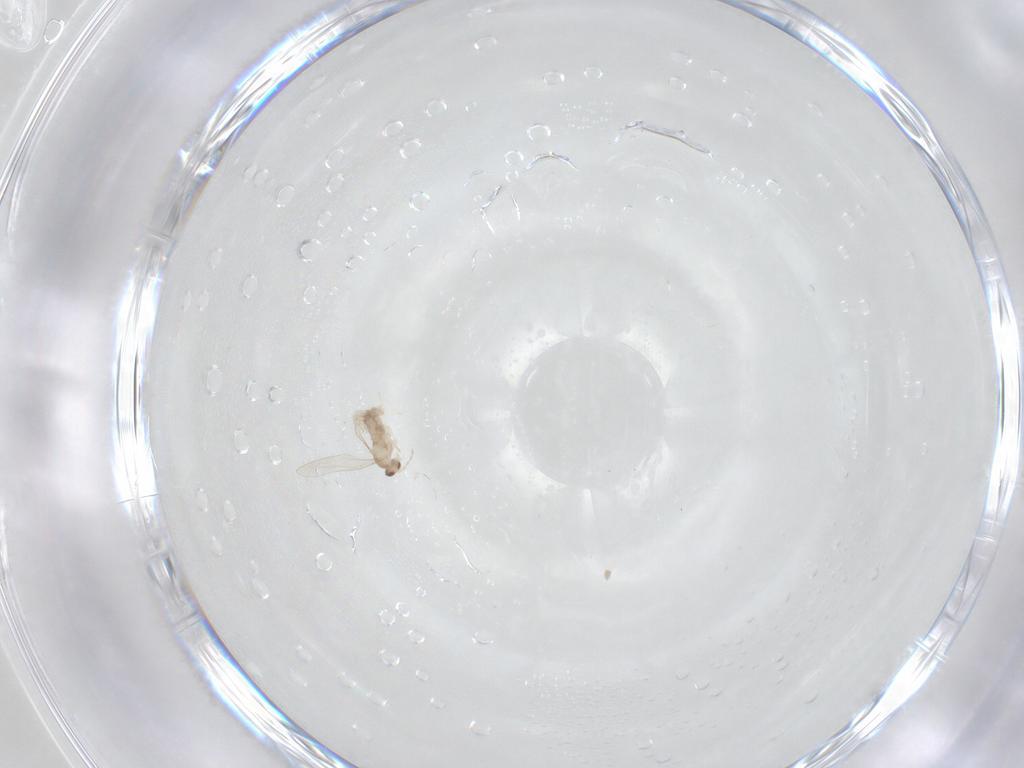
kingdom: Animalia
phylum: Arthropoda
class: Insecta
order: Diptera
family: Cecidomyiidae
